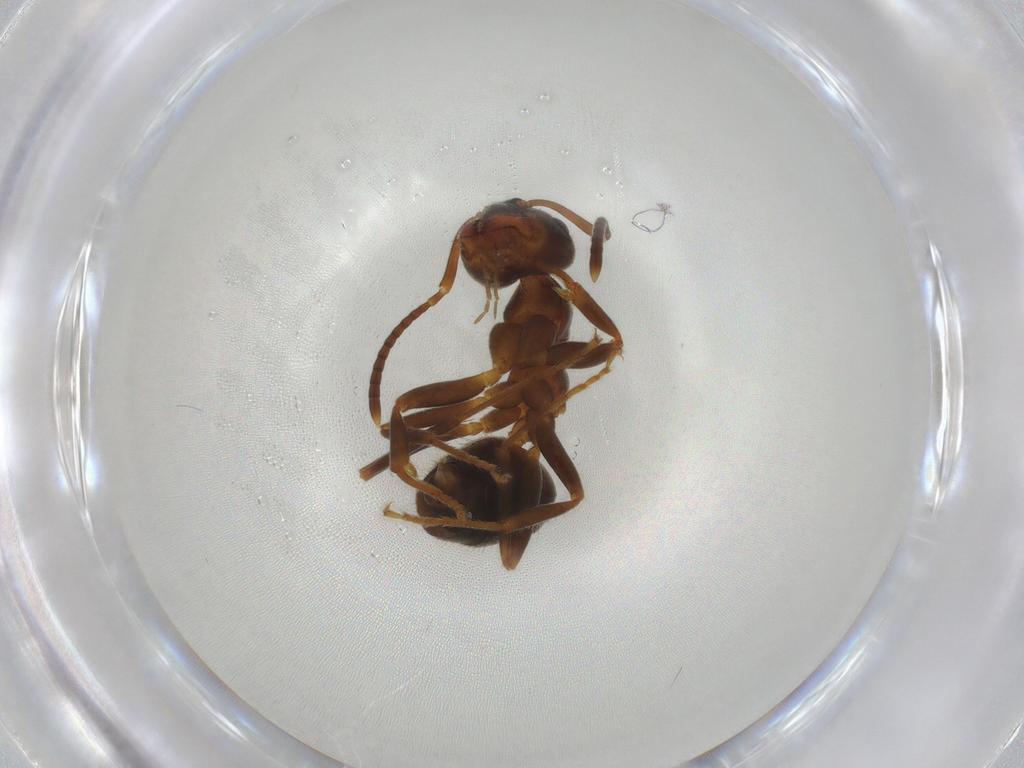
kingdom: Animalia
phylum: Arthropoda
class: Insecta
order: Hymenoptera
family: Formicidae
